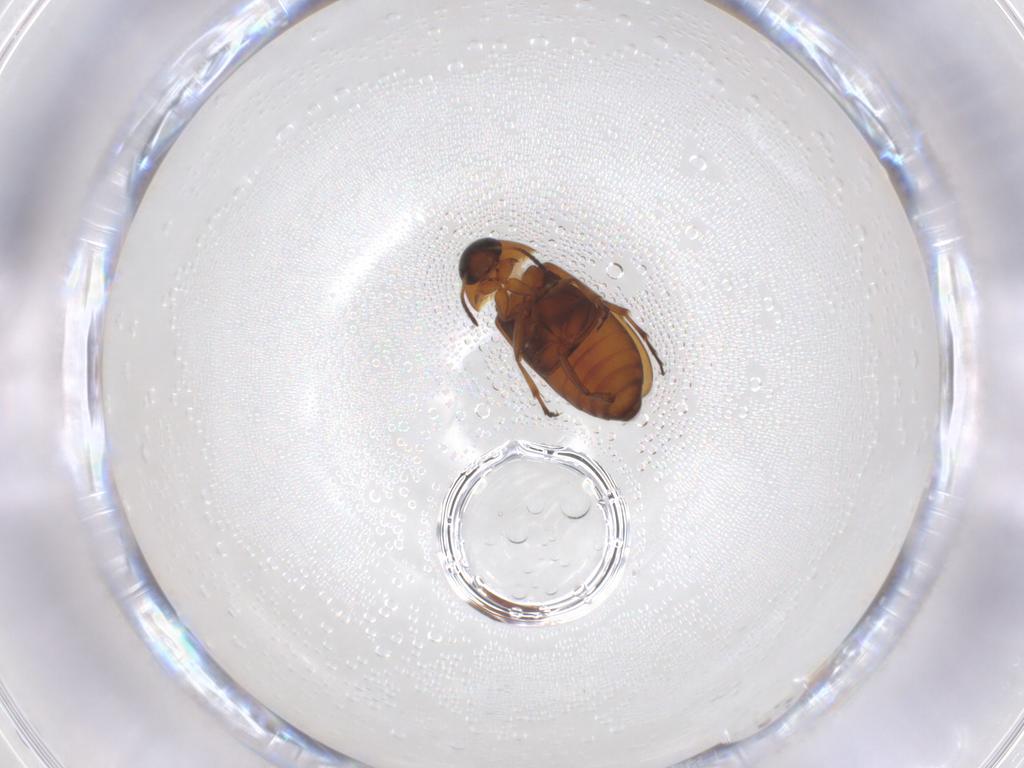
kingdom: Animalia
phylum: Arthropoda
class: Insecta
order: Coleoptera
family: Scraptiidae
